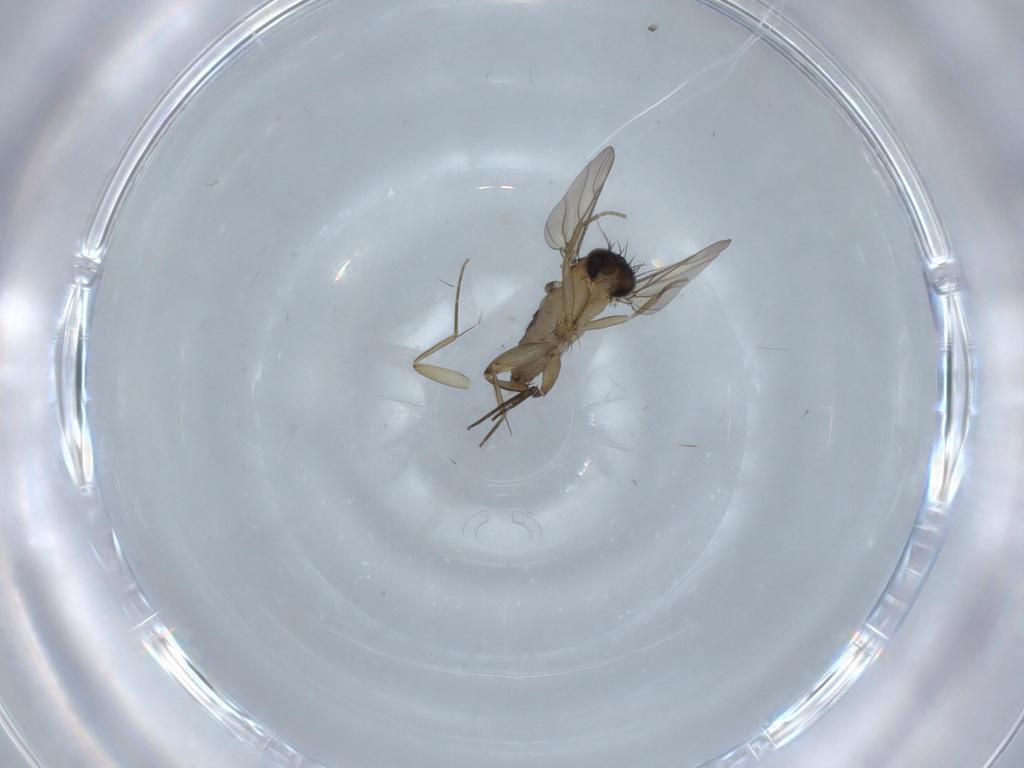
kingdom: Animalia
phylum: Arthropoda
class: Insecta
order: Diptera
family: Phoridae
